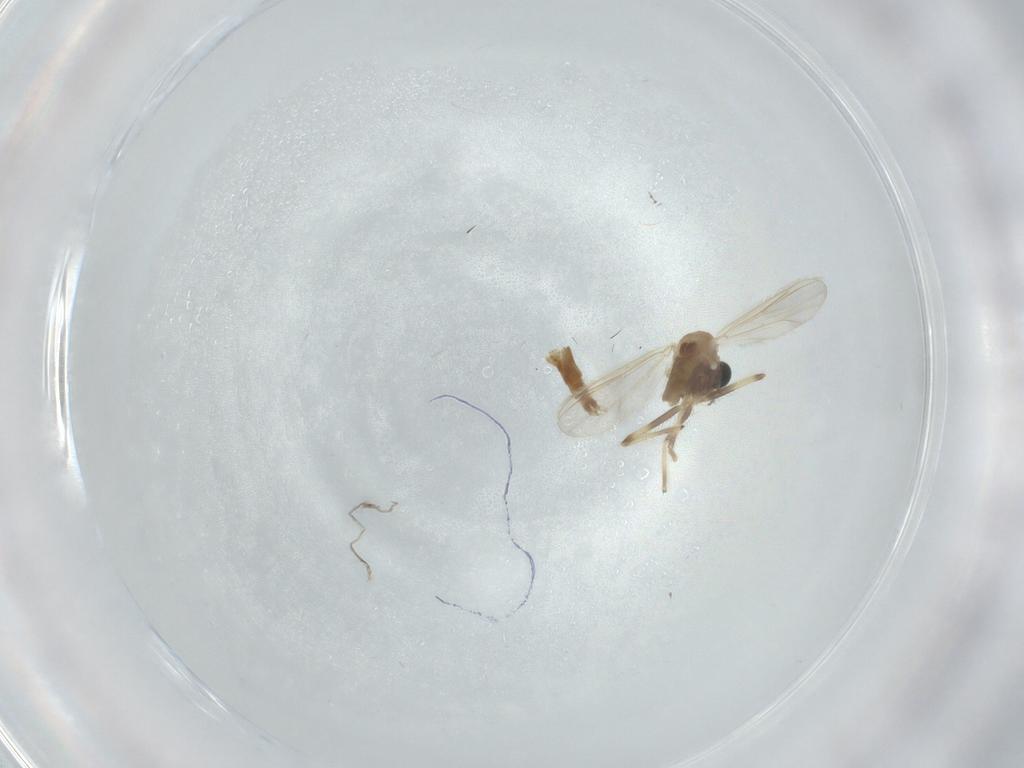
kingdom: Animalia
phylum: Arthropoda
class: Insecta
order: Diptera
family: Chironomidae
